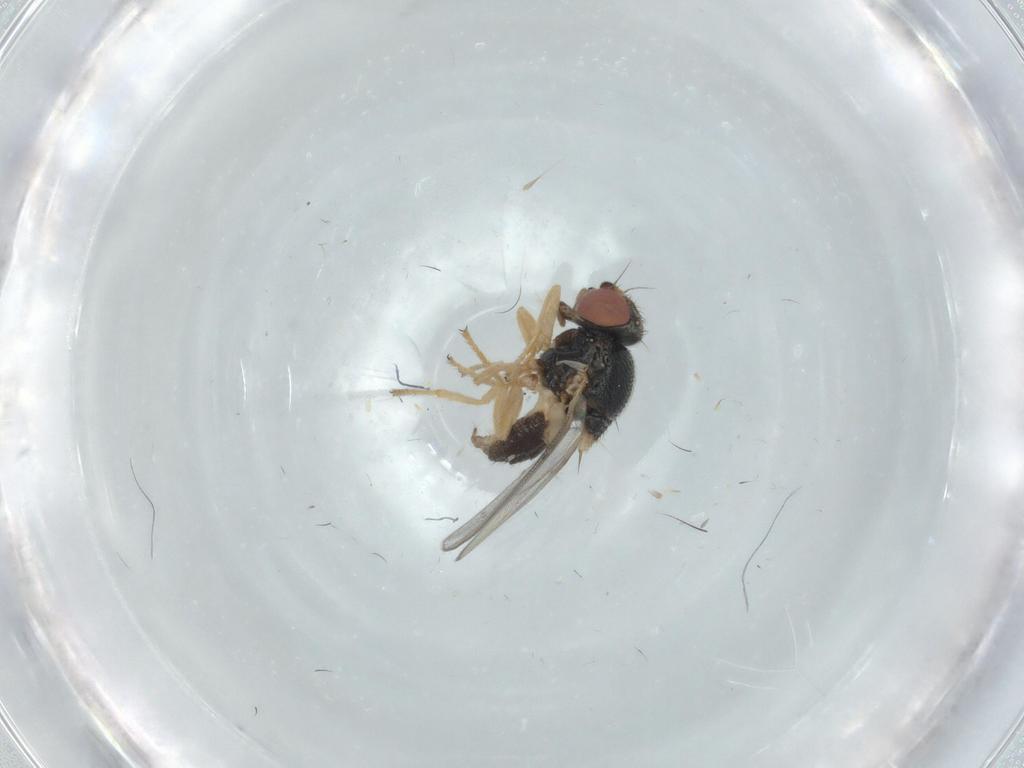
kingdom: Animalia
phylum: Arthropoda
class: Insecta
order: Diptera
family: Chloropidae
